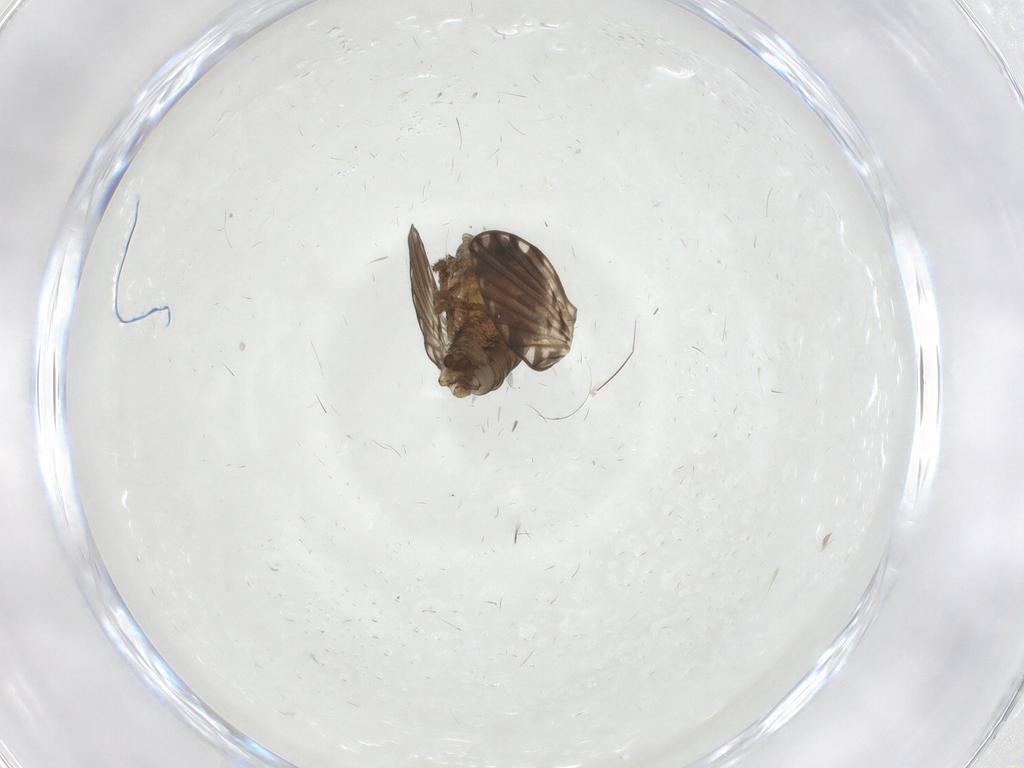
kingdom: Animalia
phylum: Arthropoda
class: Insecta
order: Diptera
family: Psychodidae
